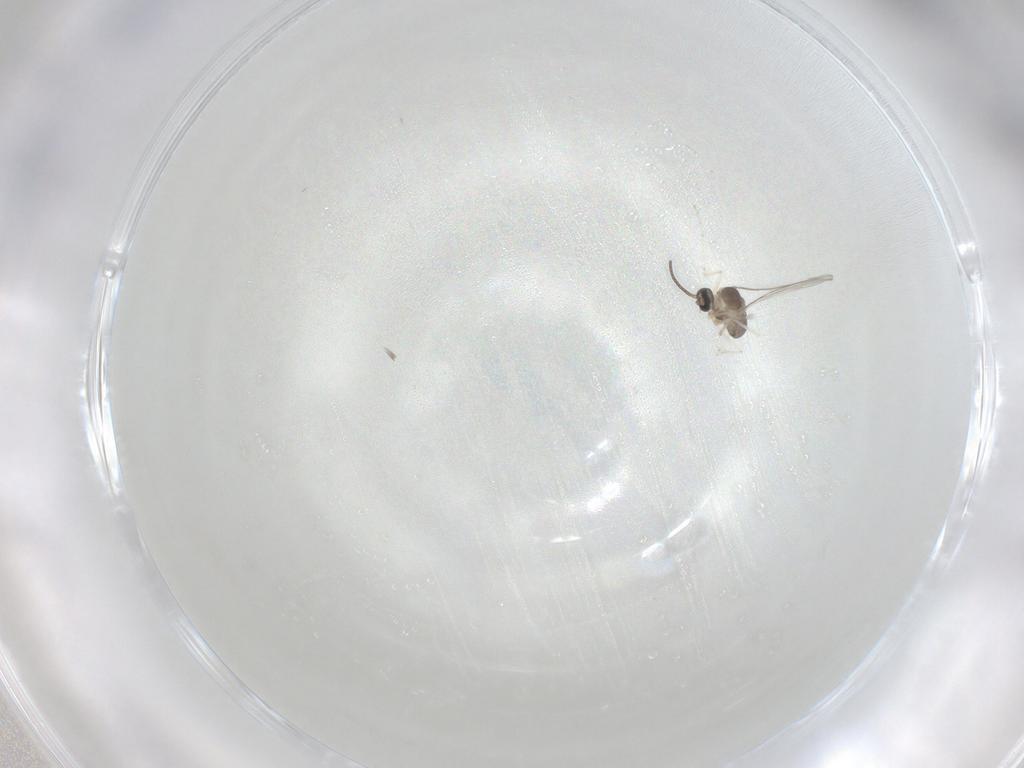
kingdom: Animalia
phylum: Arthropoda
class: Insecta
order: Diptera
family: Cecidomyiidae
